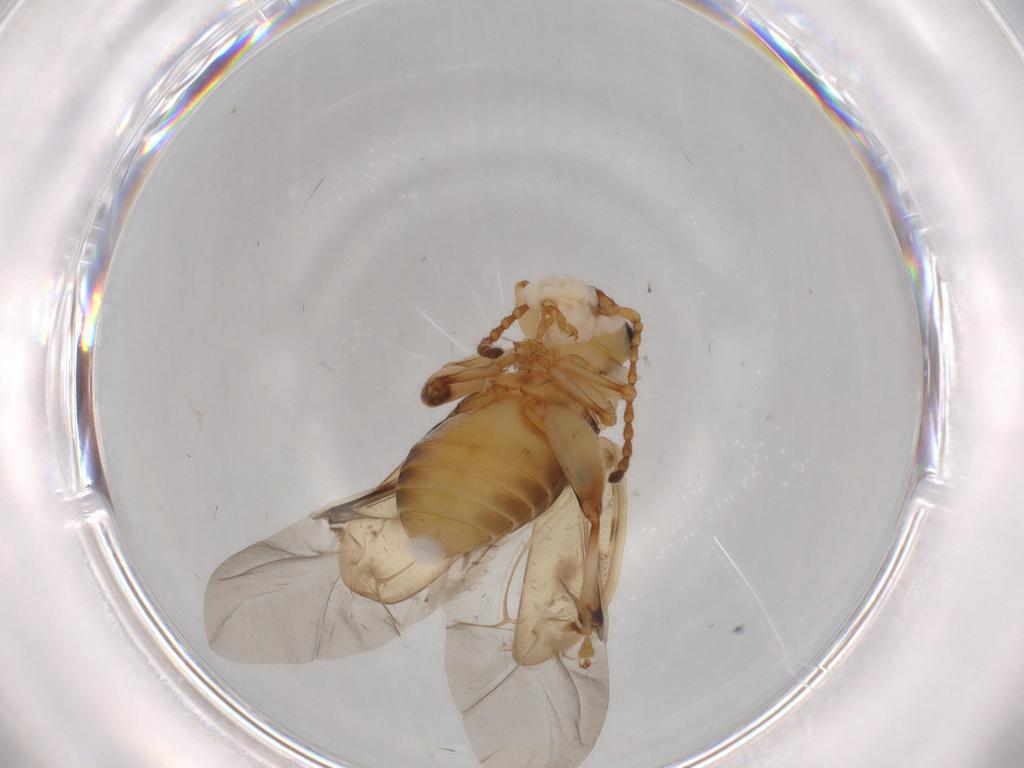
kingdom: Animalia
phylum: Arthropoda
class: Insecta
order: Coleoptera
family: Chrysomelidae
